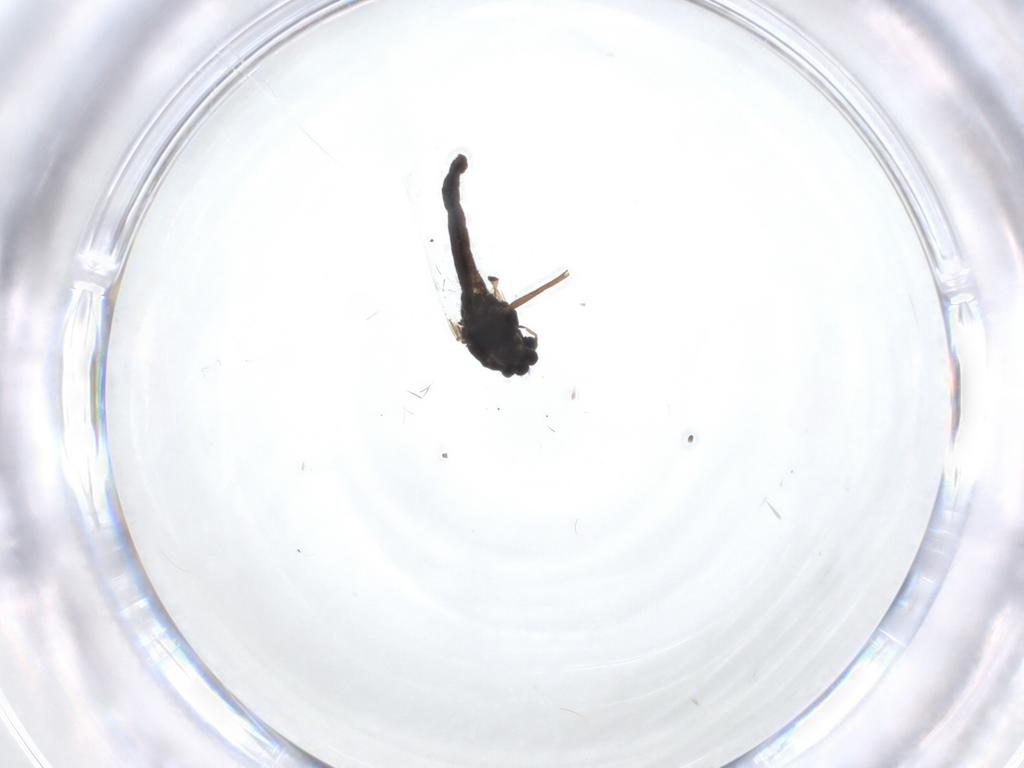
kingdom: Animalia
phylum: Arthropoda
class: Insecta
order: Diptera
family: Chironomidae
